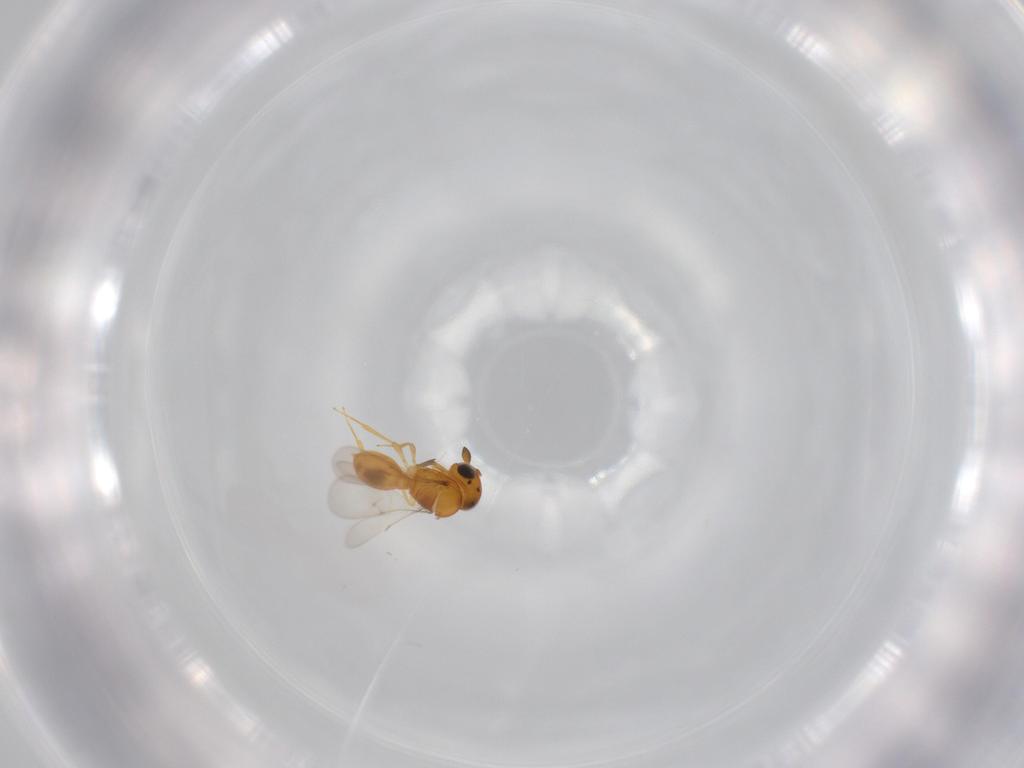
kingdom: Animalia
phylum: Arthropoda
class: Insecta
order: Hymenoptera
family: Scelionidae
